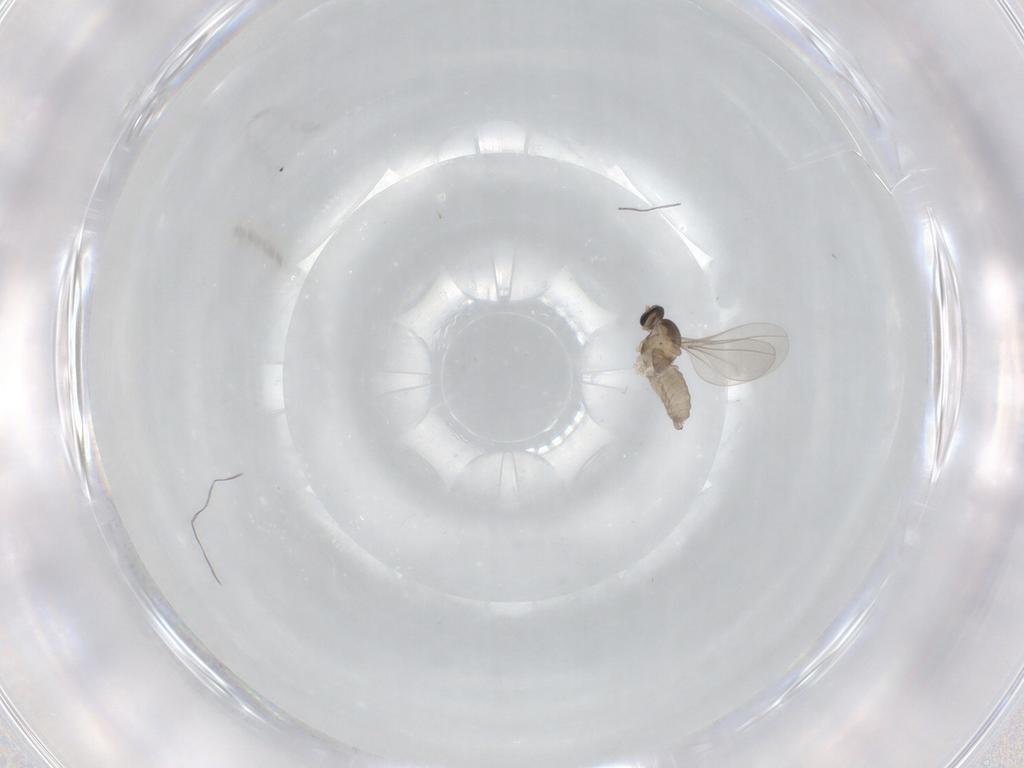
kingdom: Animalia
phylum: Arthropoda
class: Insecta
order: Diptera
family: Cecidomyiidae
